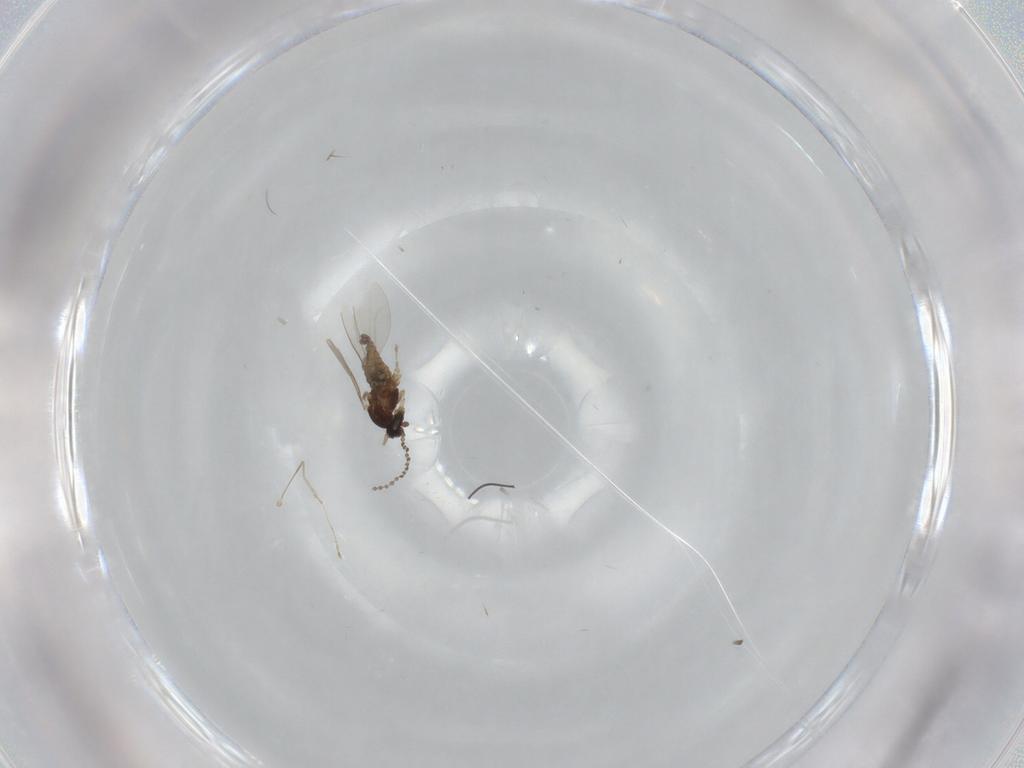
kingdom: Animalia
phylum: Arthropoda
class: Insecta
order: Diptera
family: Cecidomyiidae
